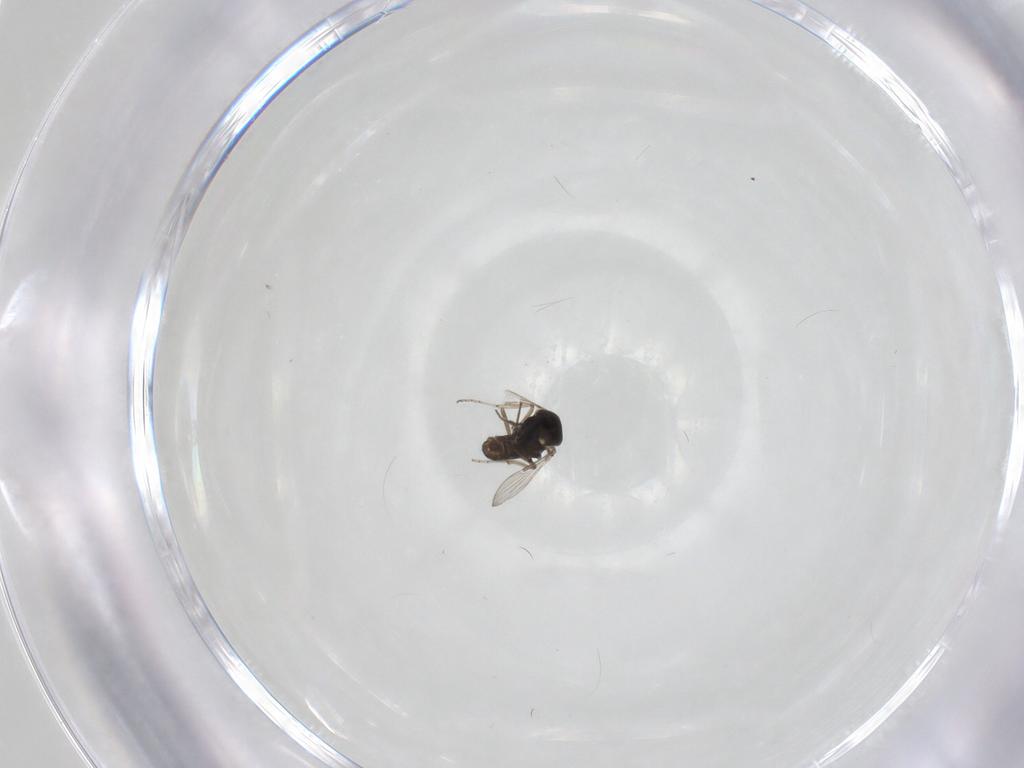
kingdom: Animalia
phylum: Arthropoda
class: Insecta
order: Diptera
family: Ceratopogonidae
